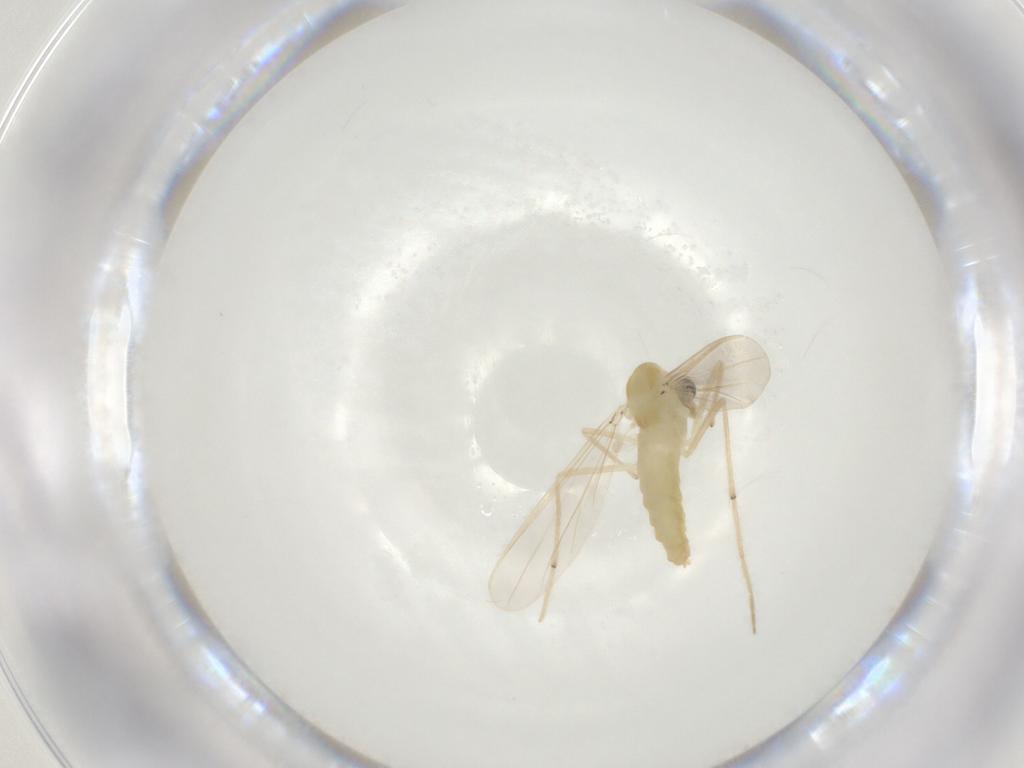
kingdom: Animalia
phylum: Arthropoda
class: Insecta
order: Diptera
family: Chironomidae
